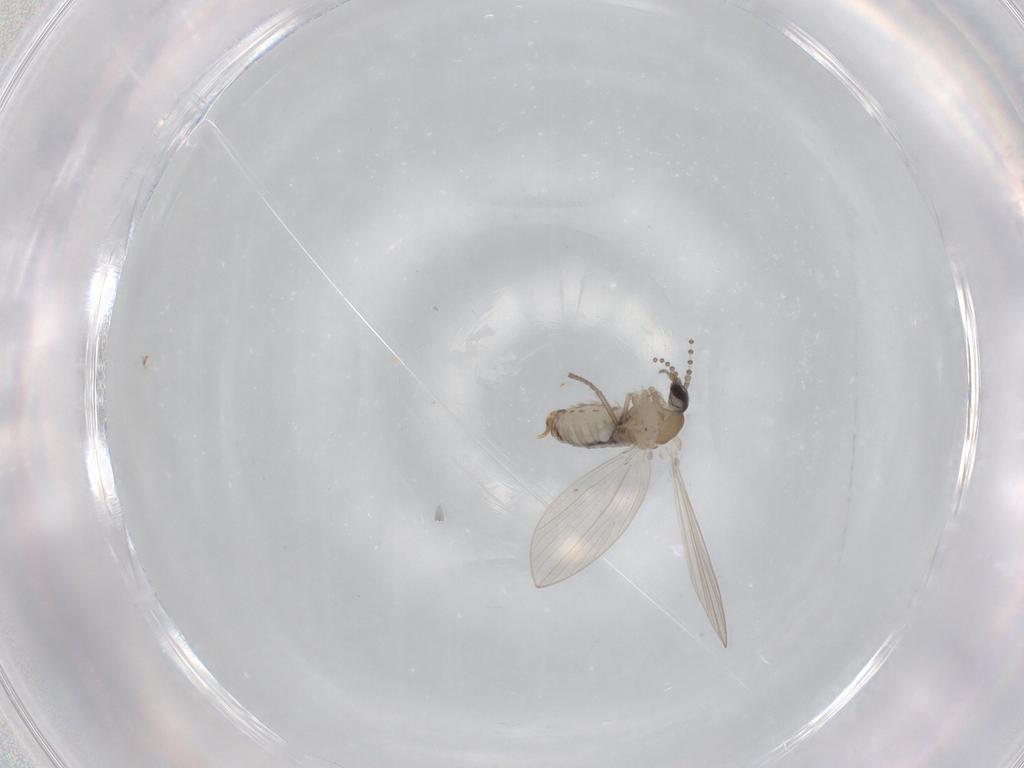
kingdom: Animalia
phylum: Arthropoda
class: Insecta
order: Diptera
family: Psychodidae
